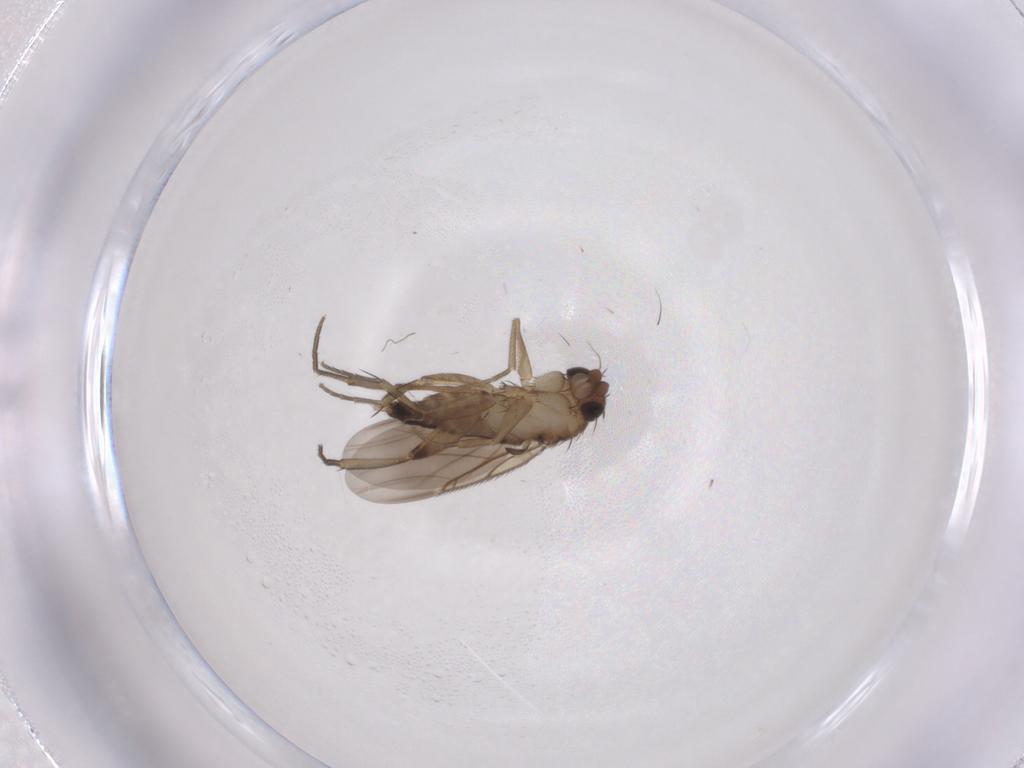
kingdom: Animalia
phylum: Arthropoda
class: Insecta
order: Diptera
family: Phoridae
